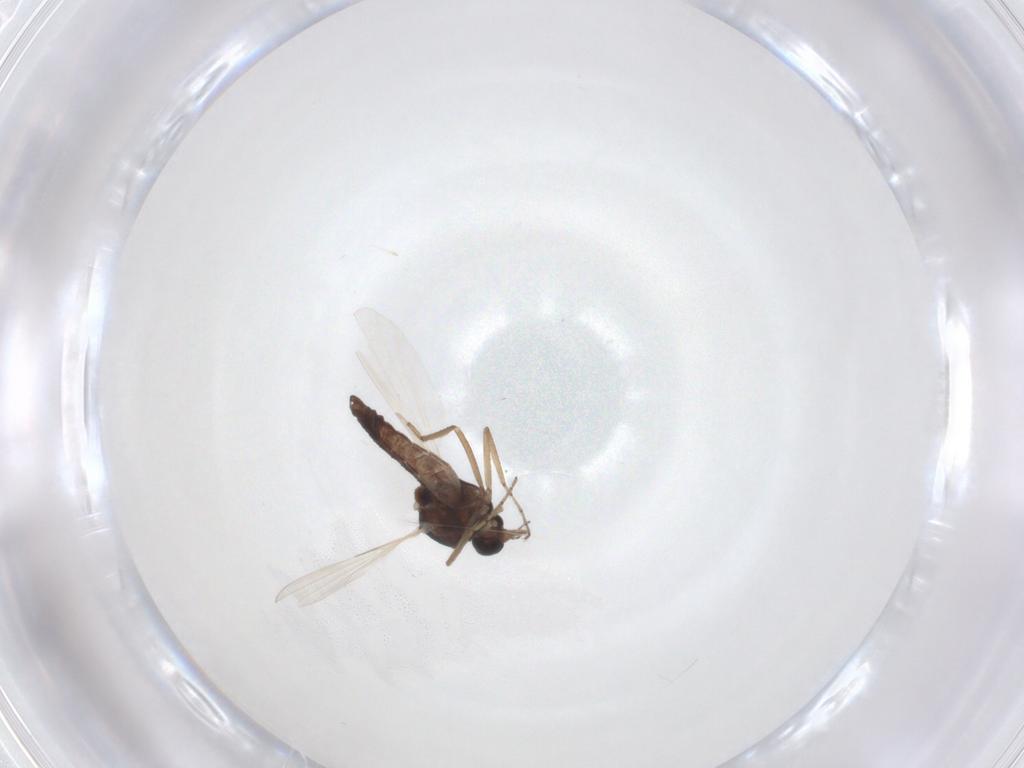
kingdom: Animalia
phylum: Arthropoda
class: Insecta
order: Diptera
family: Ceratopogonidae
